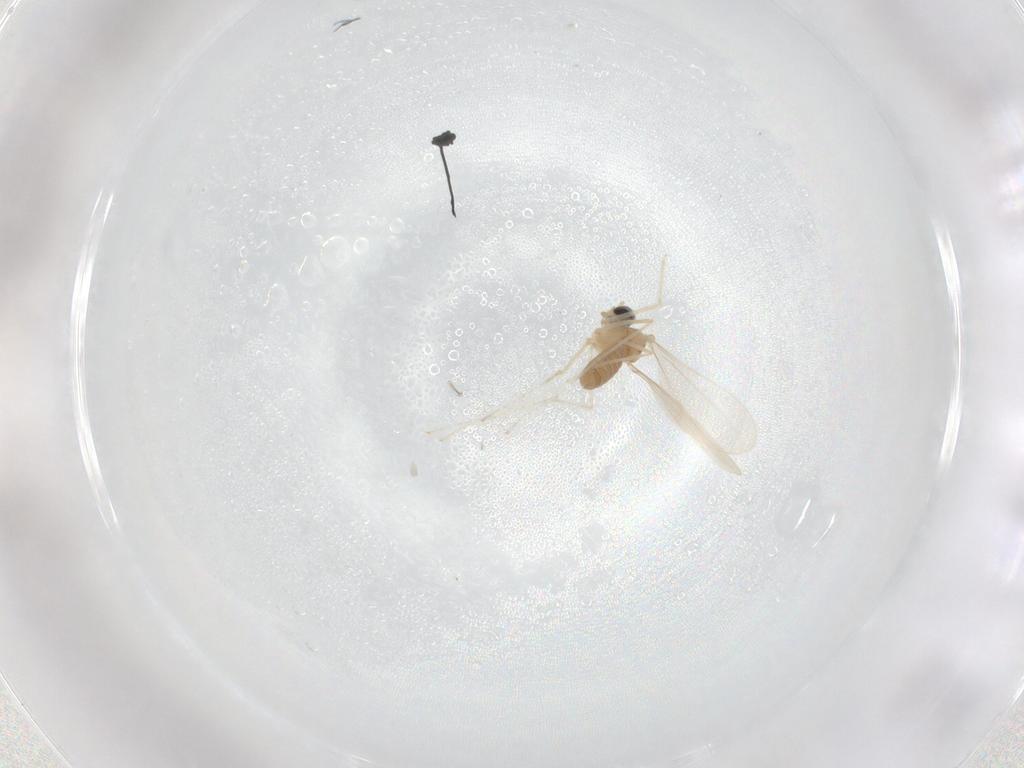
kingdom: Animalia
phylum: Arthropoda
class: Insecta
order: Diptera
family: Cecidomyiidae
